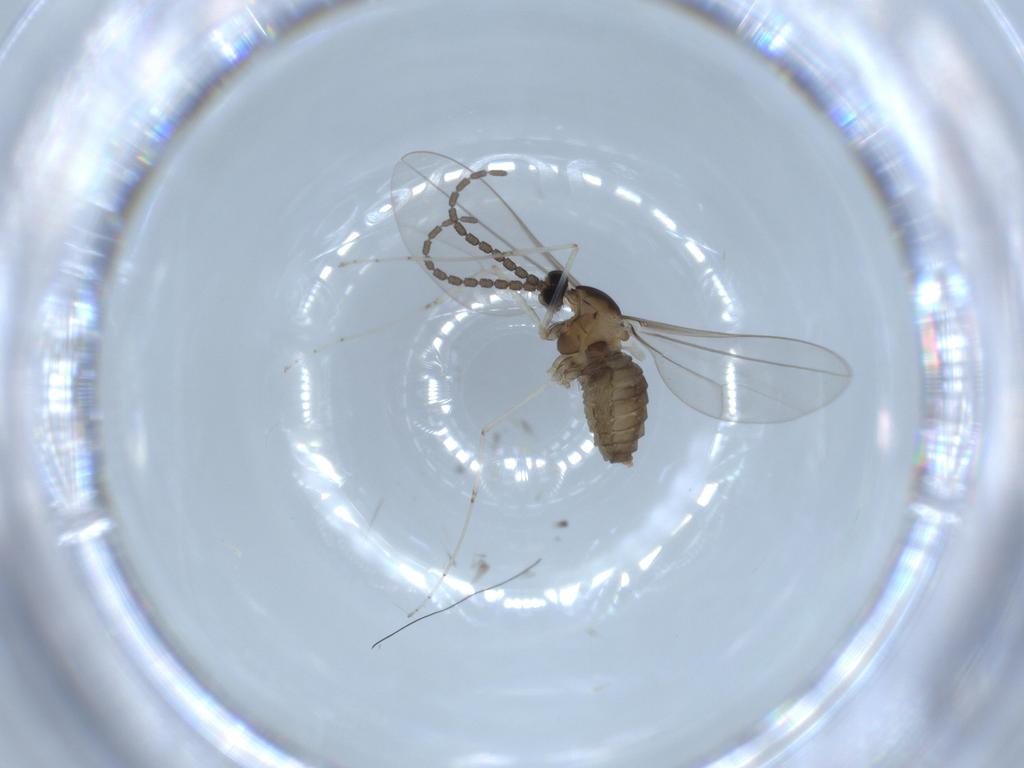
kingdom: Animalia
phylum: Arthropoda
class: Insecta
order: Diptera
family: Cecidomyiidae
